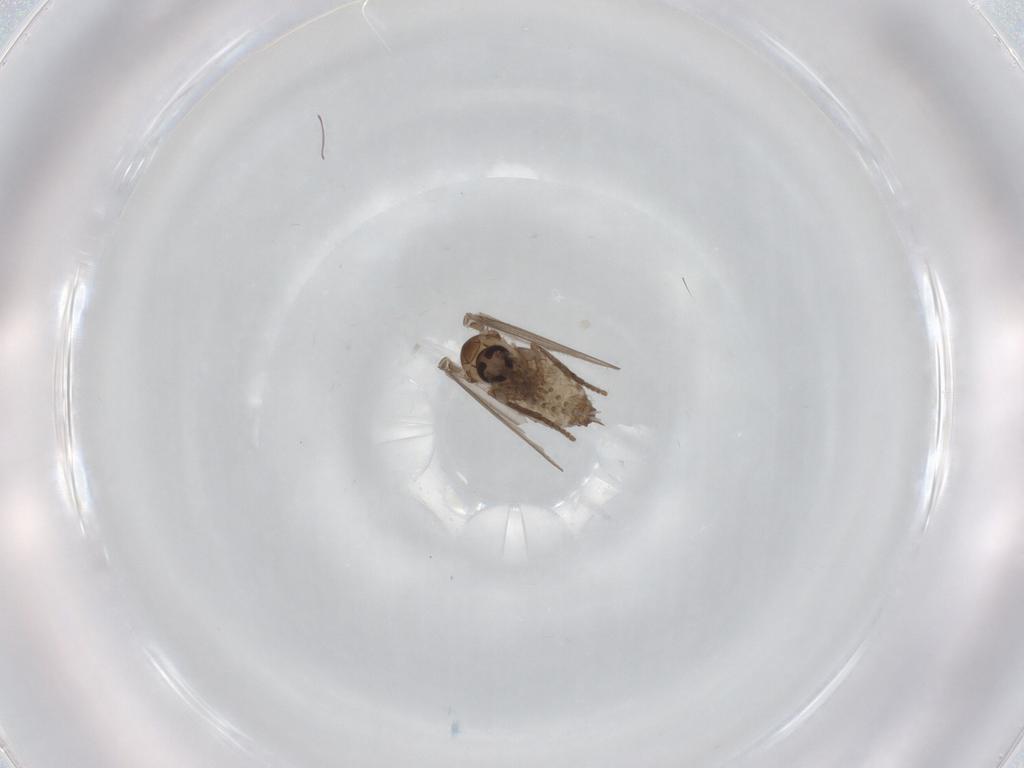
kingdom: Animalia
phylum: Arthropoda
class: Insecta
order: Diptera
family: Psychodidae
